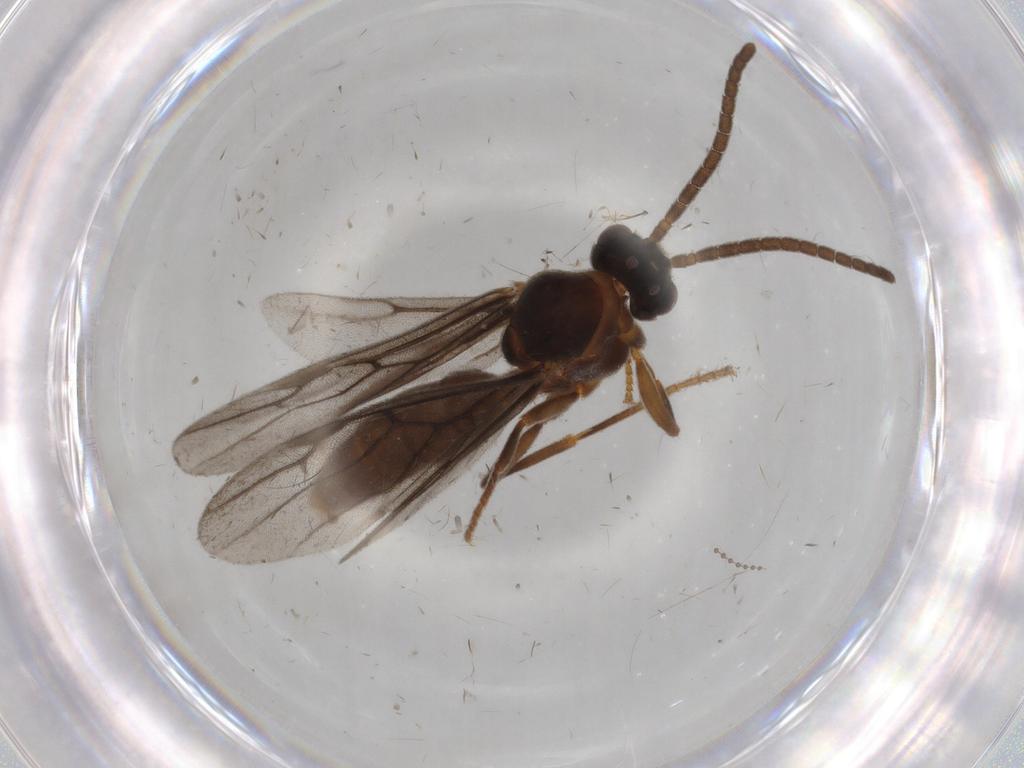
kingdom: Animalia
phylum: Arthropoda
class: Insecta
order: Hymenoptera
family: Formicidae
